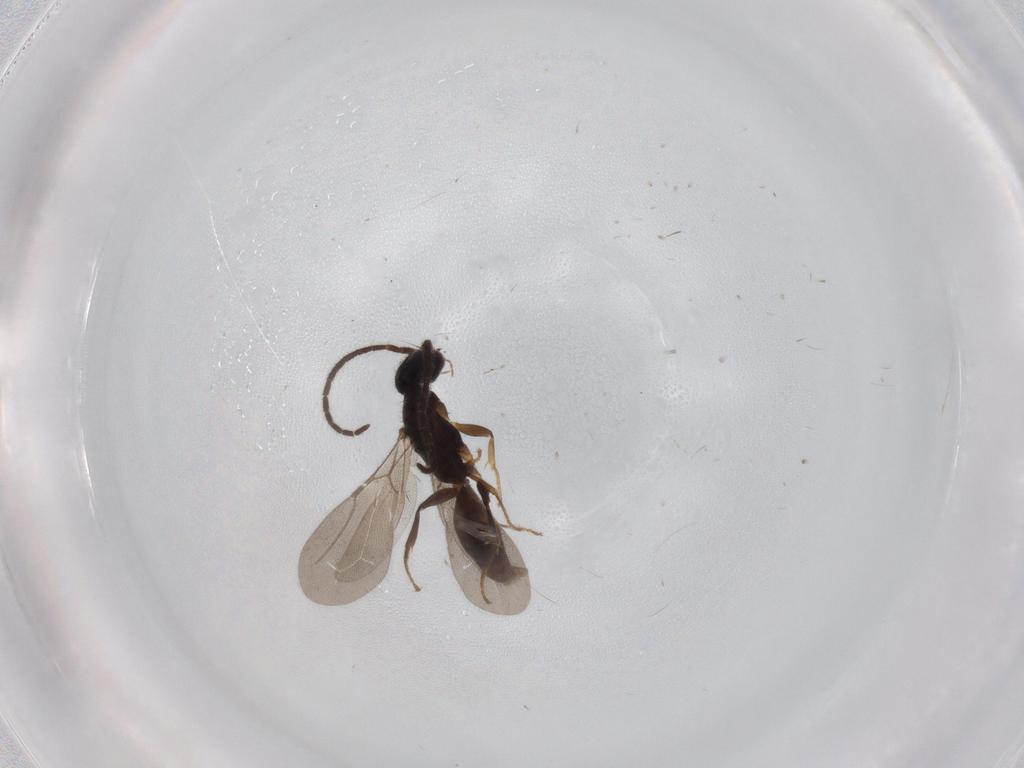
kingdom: Animalia
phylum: Arthropoda
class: Insecta
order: Hymenoptera
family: Bethylidae
